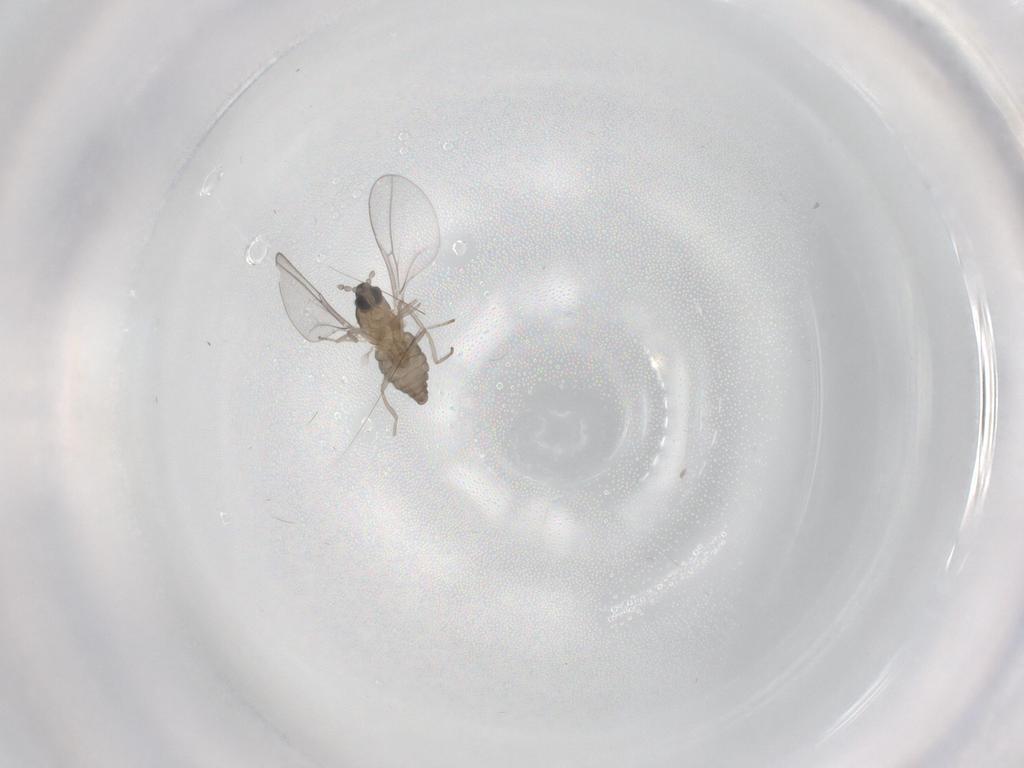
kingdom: Animalia
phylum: Arthropoda
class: Insecta
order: Diptera
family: Cecidomyiidae
